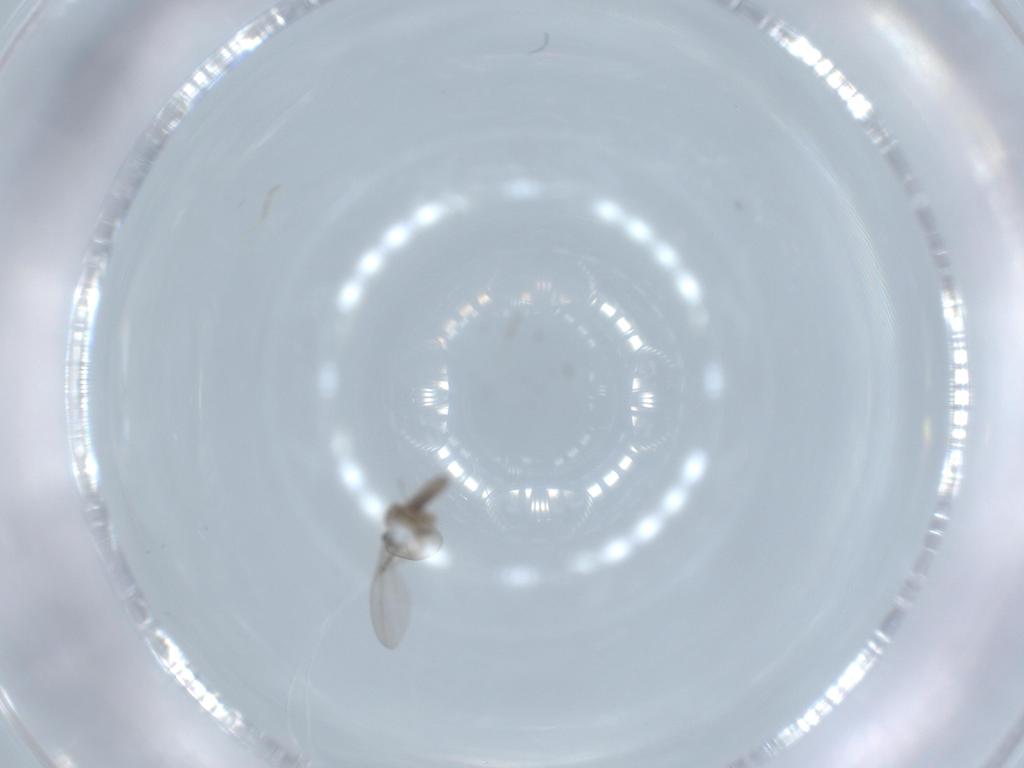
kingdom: Animalia
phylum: Arthropoda
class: Insecta
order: Diptera
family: Cecidomyiidae
